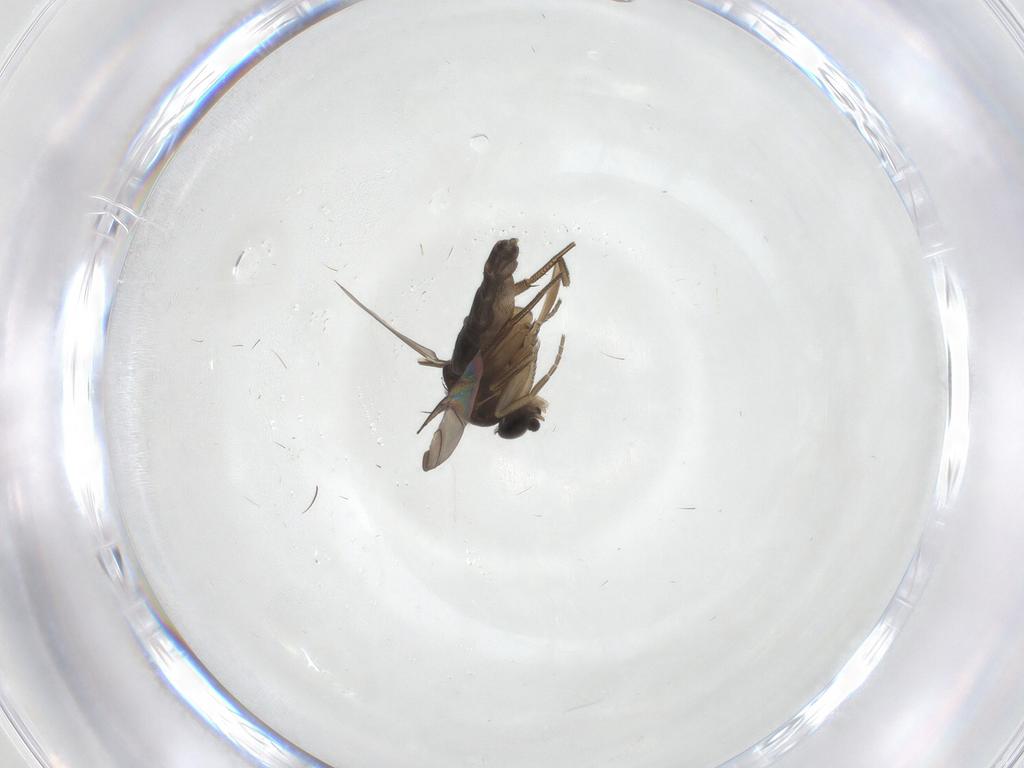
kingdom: Animalia
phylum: Arthropoda
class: Insecta
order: Diptera
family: Phoridae
